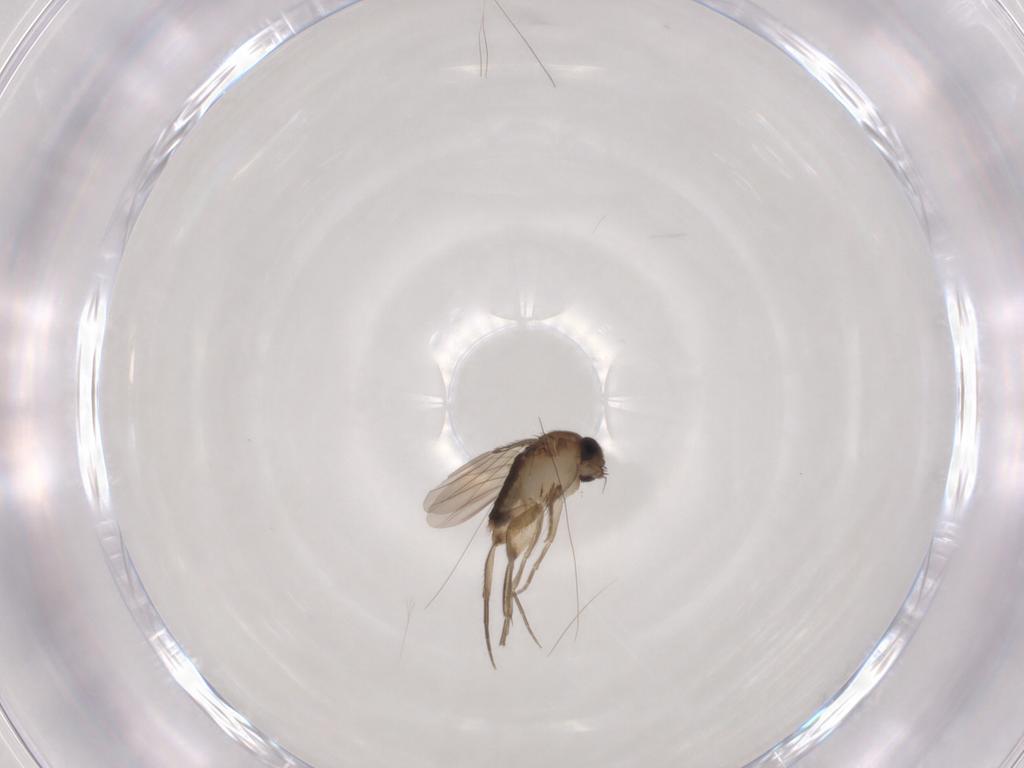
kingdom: Animalia
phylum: Arthropoda
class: Insecta
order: Diptera
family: Phoridae
